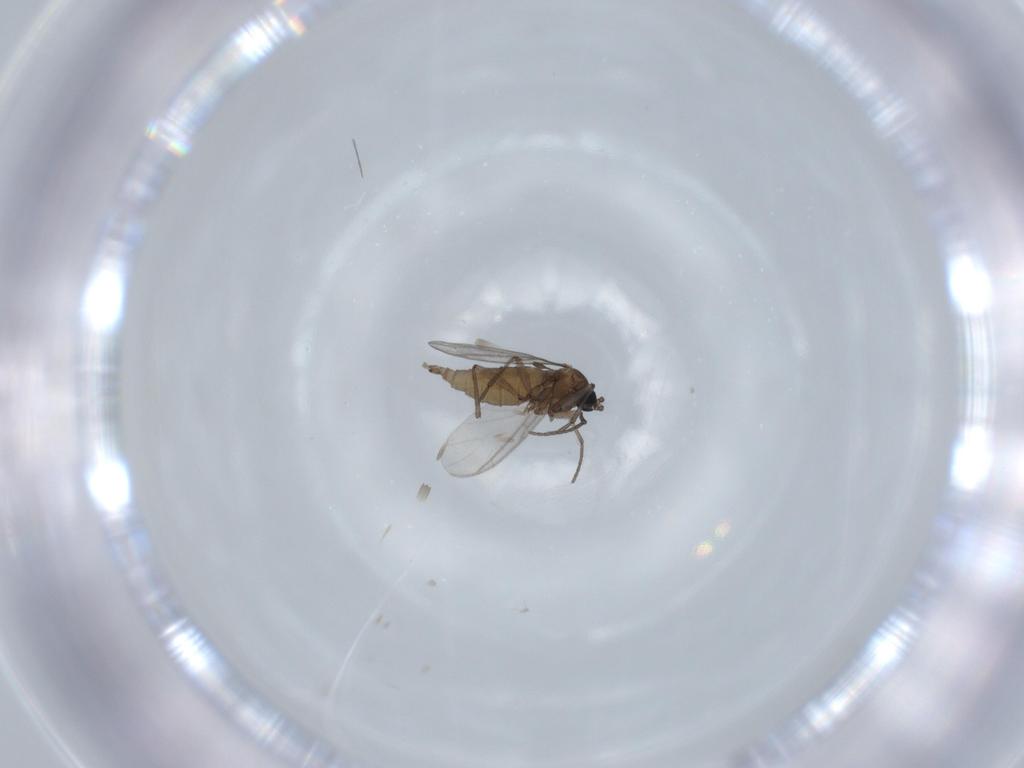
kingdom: Animalia
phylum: Arthropoda
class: Insecta
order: Diptera
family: Sciaridae
